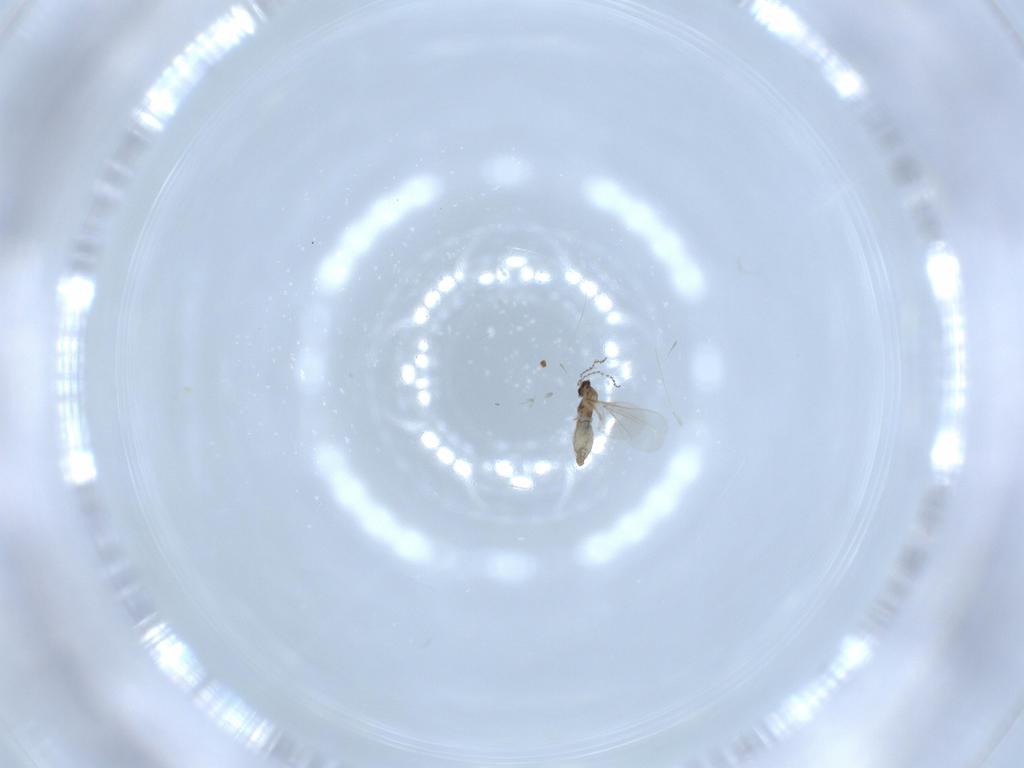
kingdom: Animalia
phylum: Arthropoda
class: Insecta
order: Diptera
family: Cecidomyiidae
